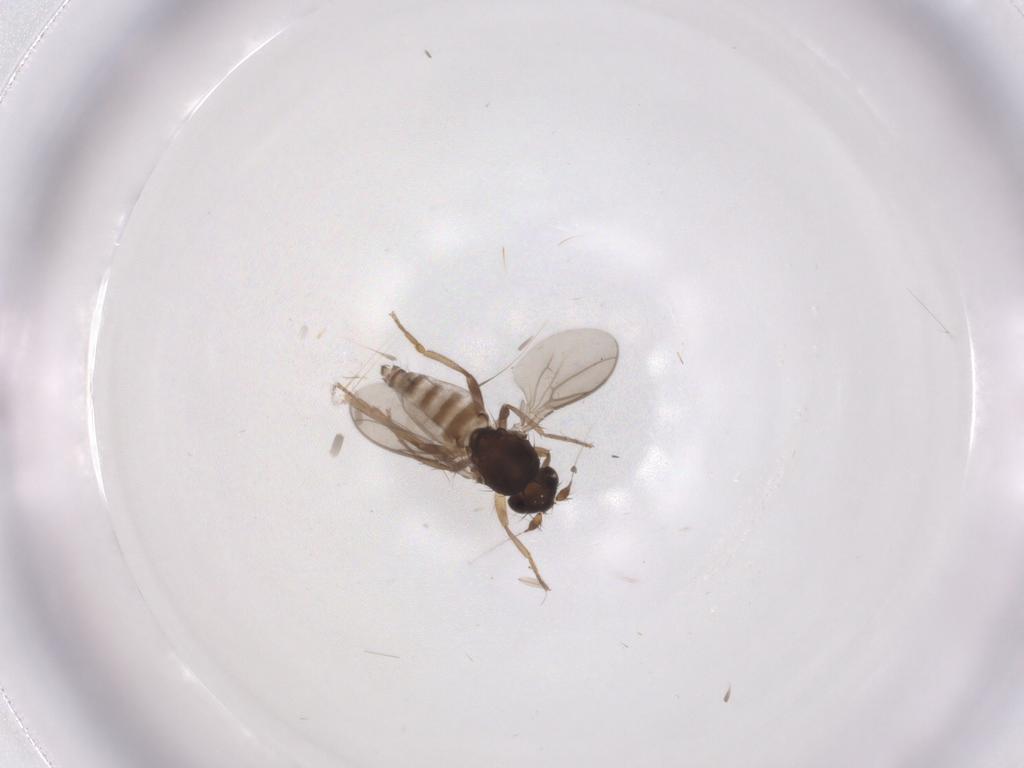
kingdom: Animalia
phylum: Arthropoda
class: Insecta
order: Diptera
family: Sphaeroceridae
